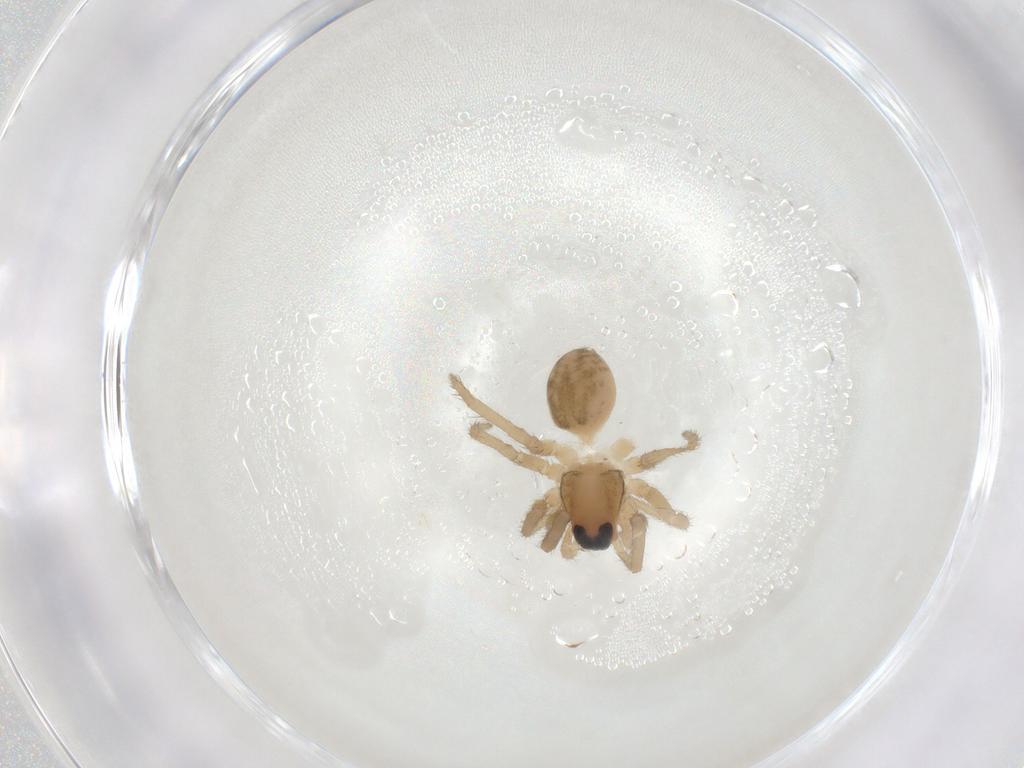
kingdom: Animalia
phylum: Arthropoda
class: Arachnida
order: Araneae
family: Lycosidae
